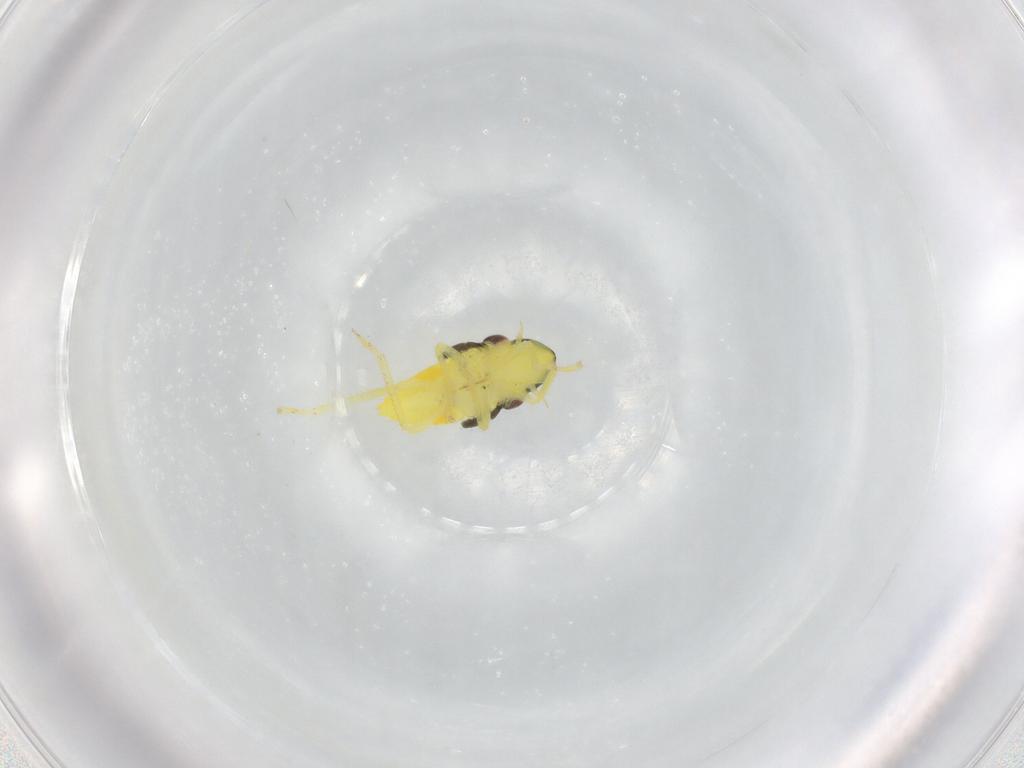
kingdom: Animalia
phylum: Arthropoda
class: Insecta
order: Hemiptera
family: Cicadellidae
